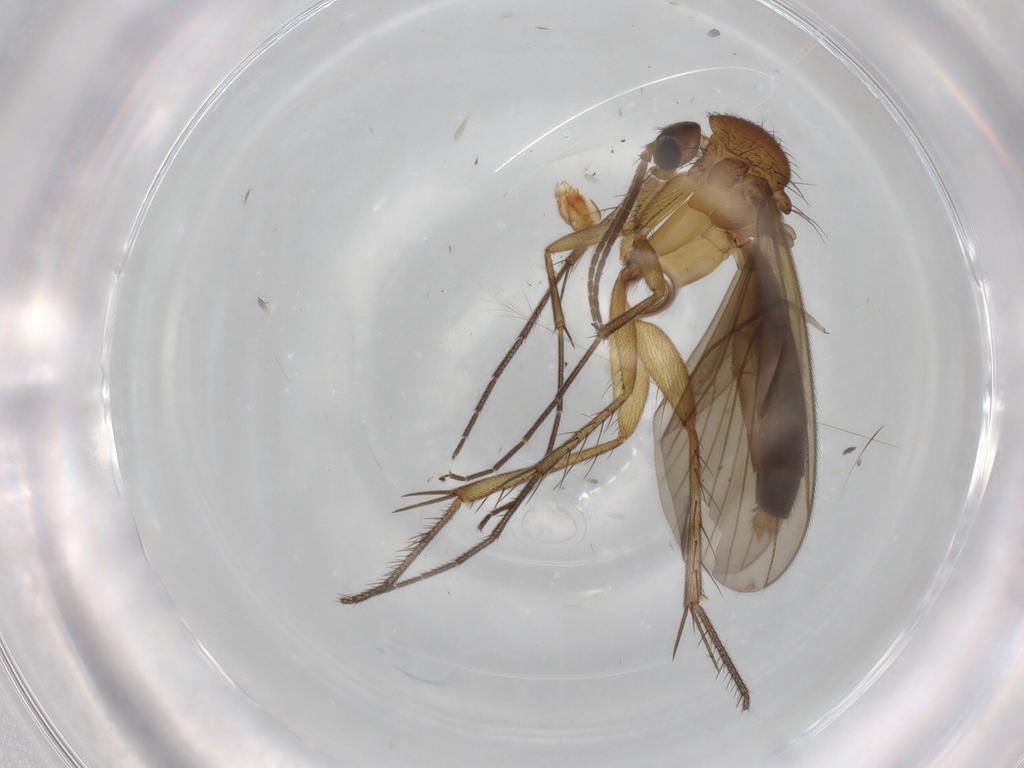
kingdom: Animalia
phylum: Arthropoda
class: Insecta
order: Diptera
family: Mycetophilidae
